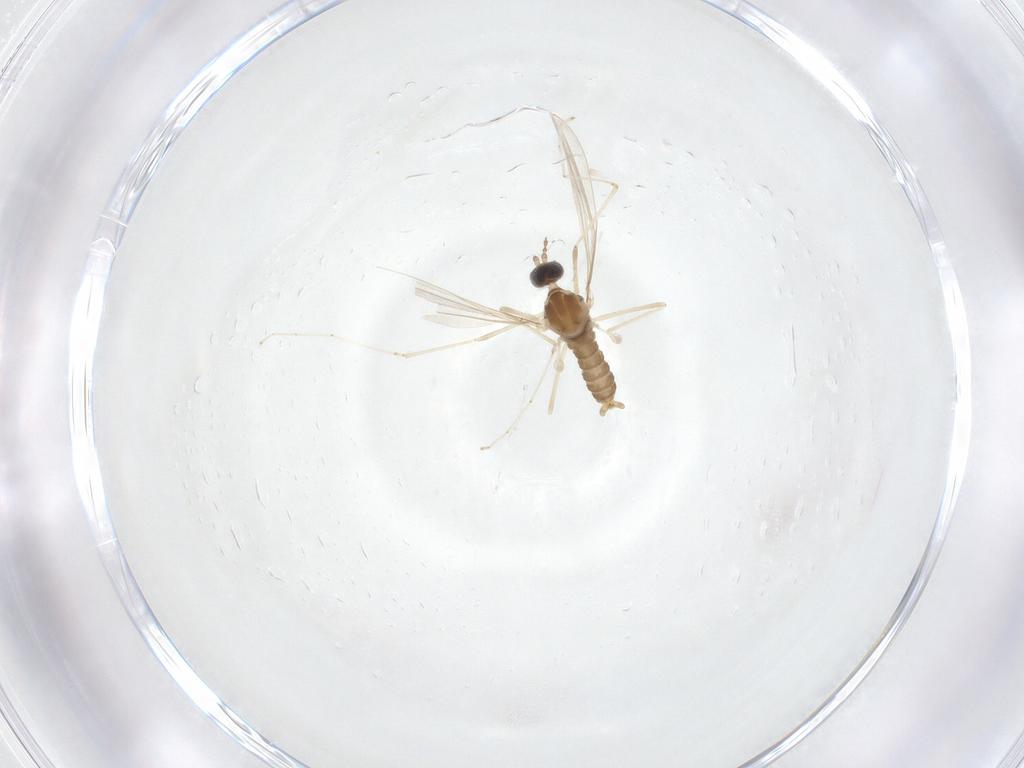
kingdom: Animalia
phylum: Arthropoda
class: Insecta
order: Diptera
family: Cecidomyiidae
